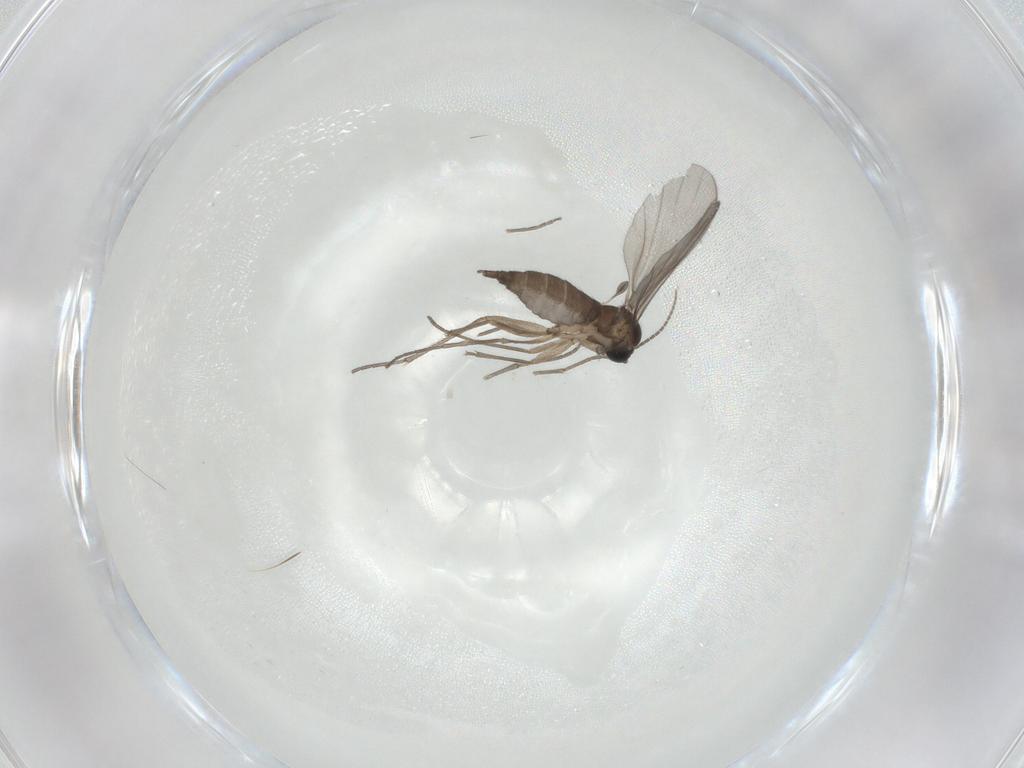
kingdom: Animalia
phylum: Arthropoda
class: Insecta
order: Diptera
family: Sciaridae
